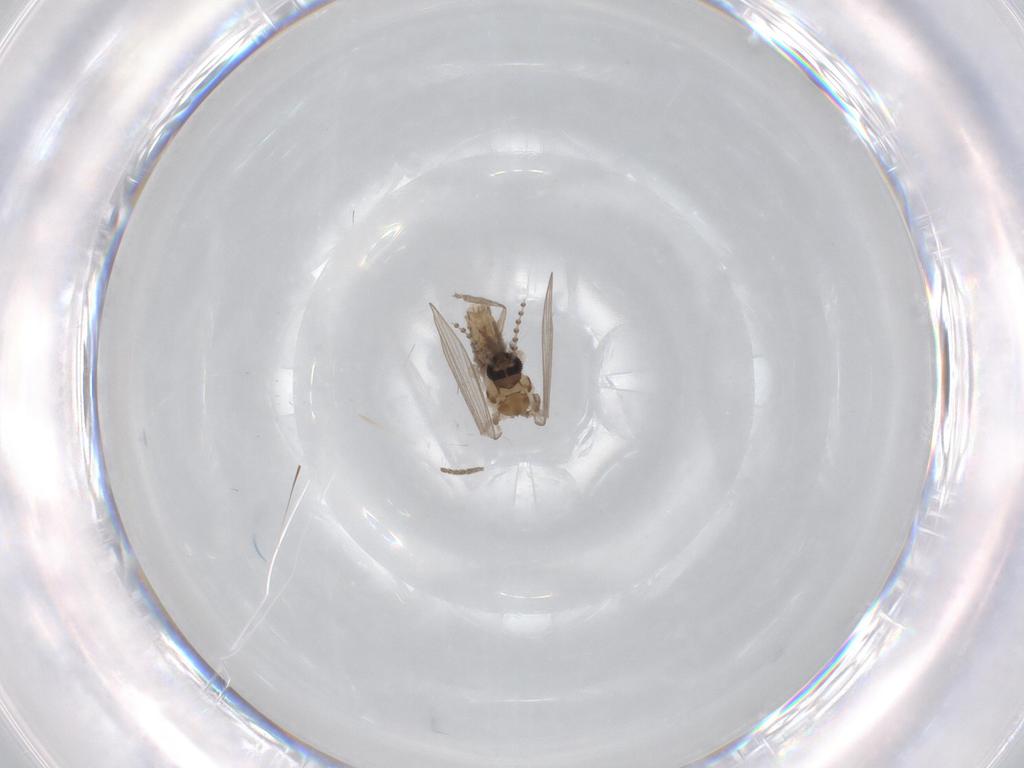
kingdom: Animalia
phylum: Arthropoda
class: Insecta
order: Diptera
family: Psychodidae
